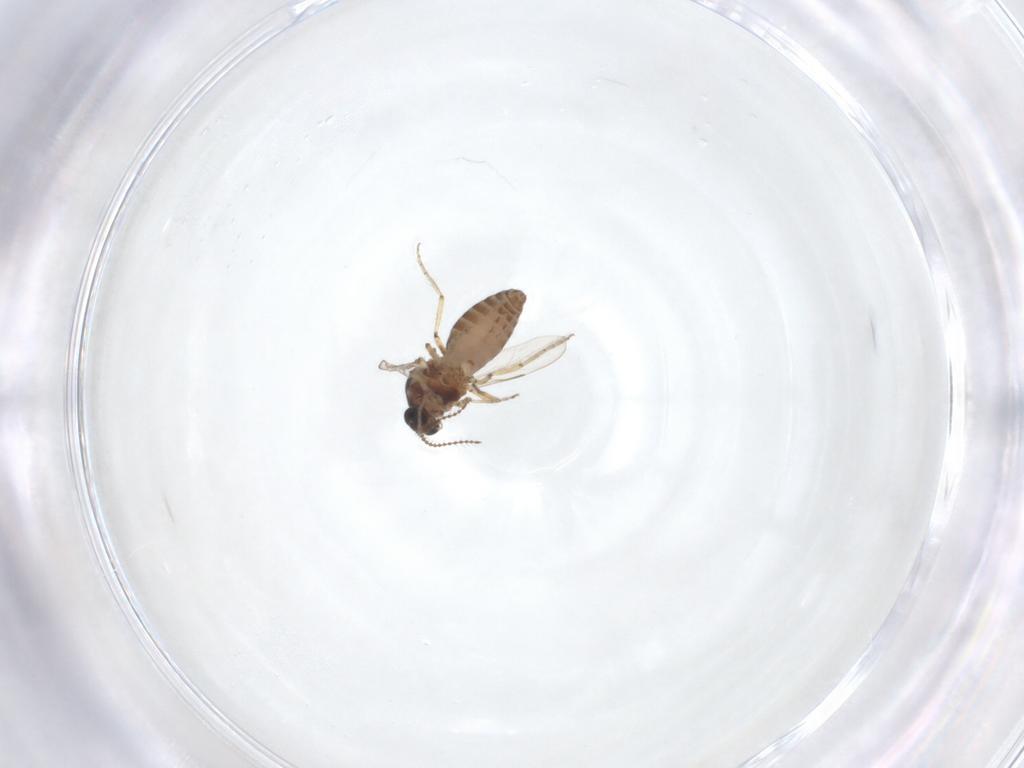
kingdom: Animalia
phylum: Arthropoda
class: Insecta
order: Diptera
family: Ceratopogonidae
